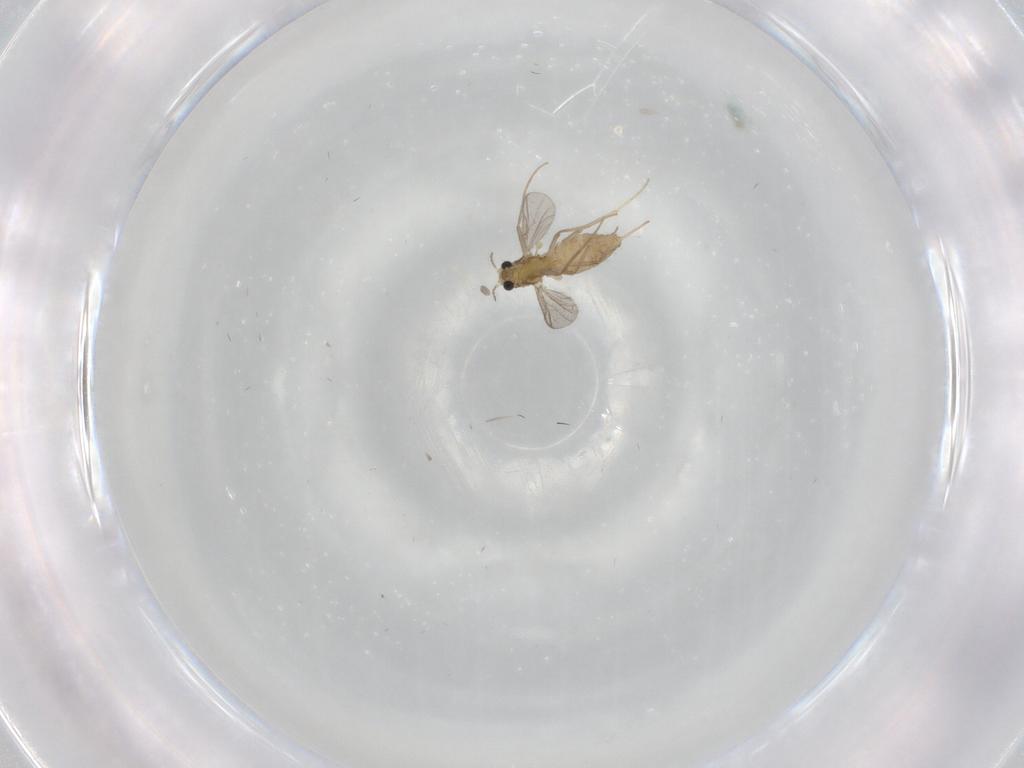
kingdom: Animalia
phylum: Arthropoda
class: Insecta
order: Diptera
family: Chironomidae
